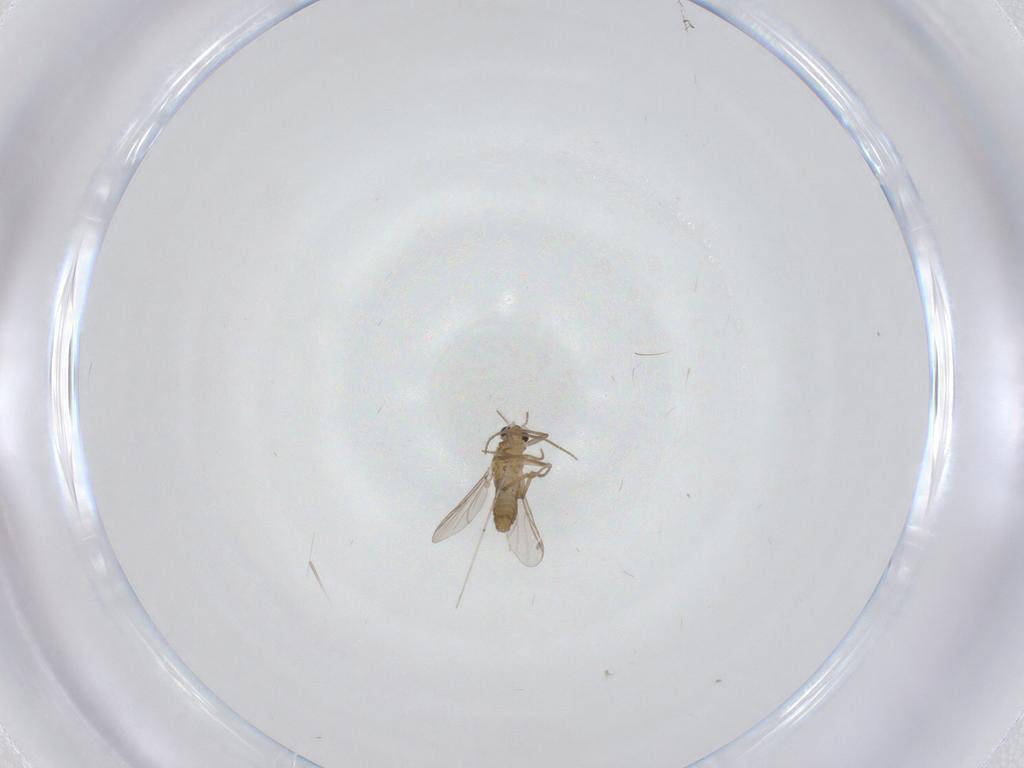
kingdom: Animalia
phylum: Arthropoda
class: Insecta
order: Diptera
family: Chironomidae
